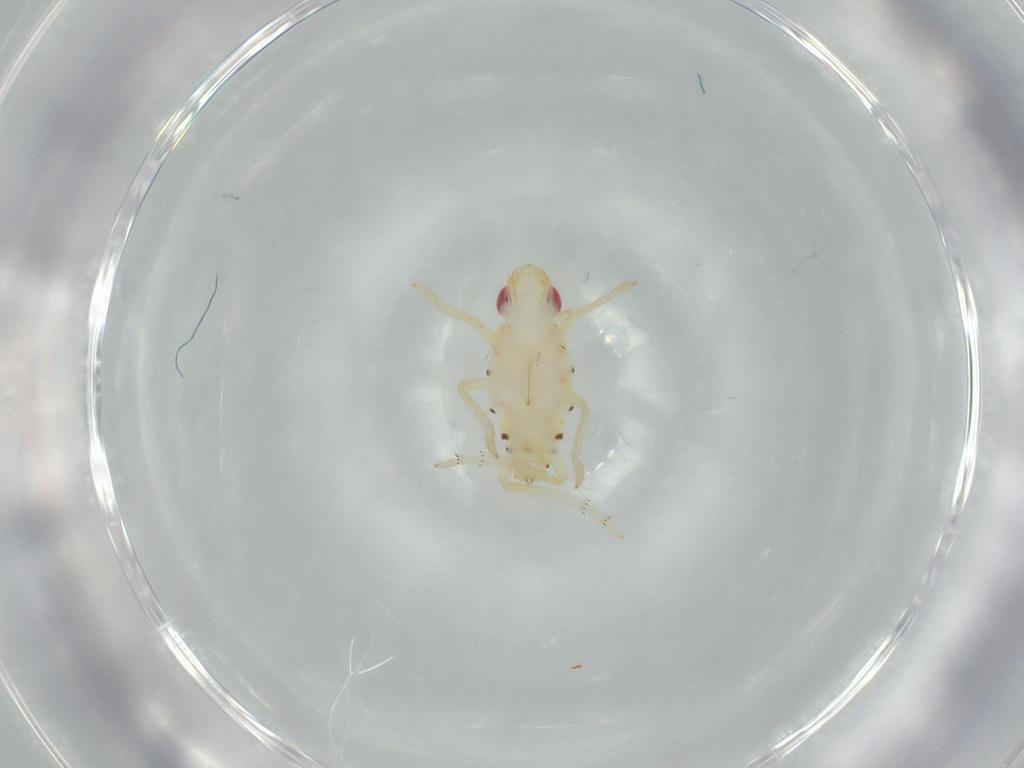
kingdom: Animalia
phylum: Arthropoda
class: Insecta
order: Hemiptera
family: Tropiduchidae
